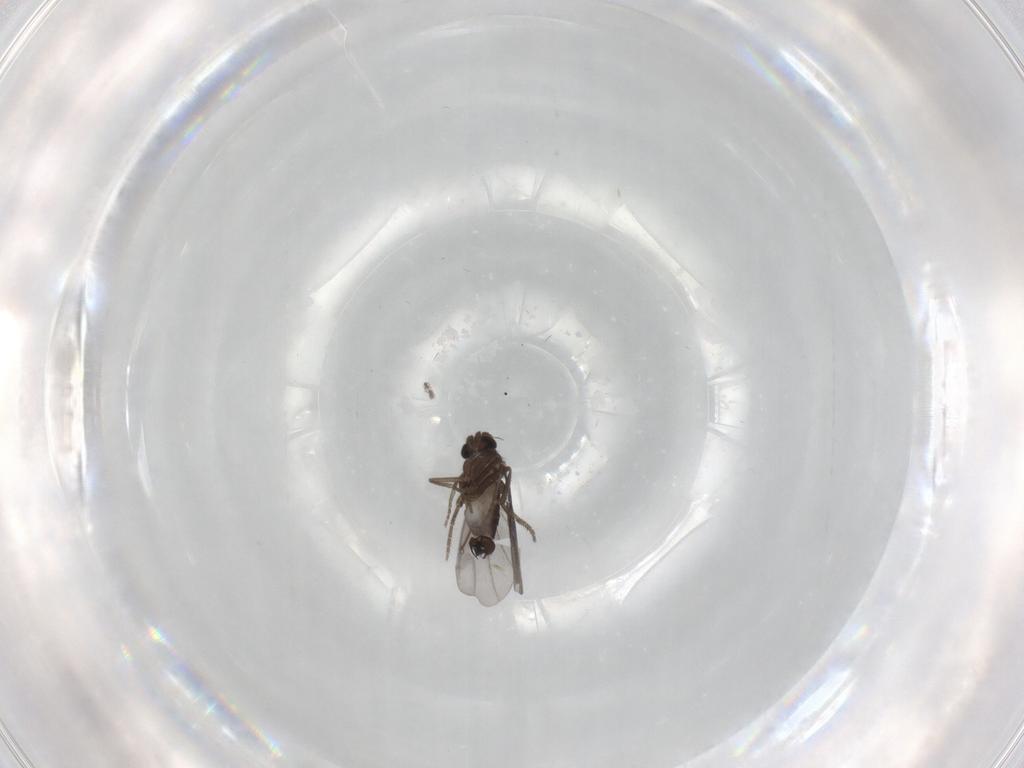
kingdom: Animalia
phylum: Arthropoda
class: Insecta
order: Diptera
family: Chironomidae
